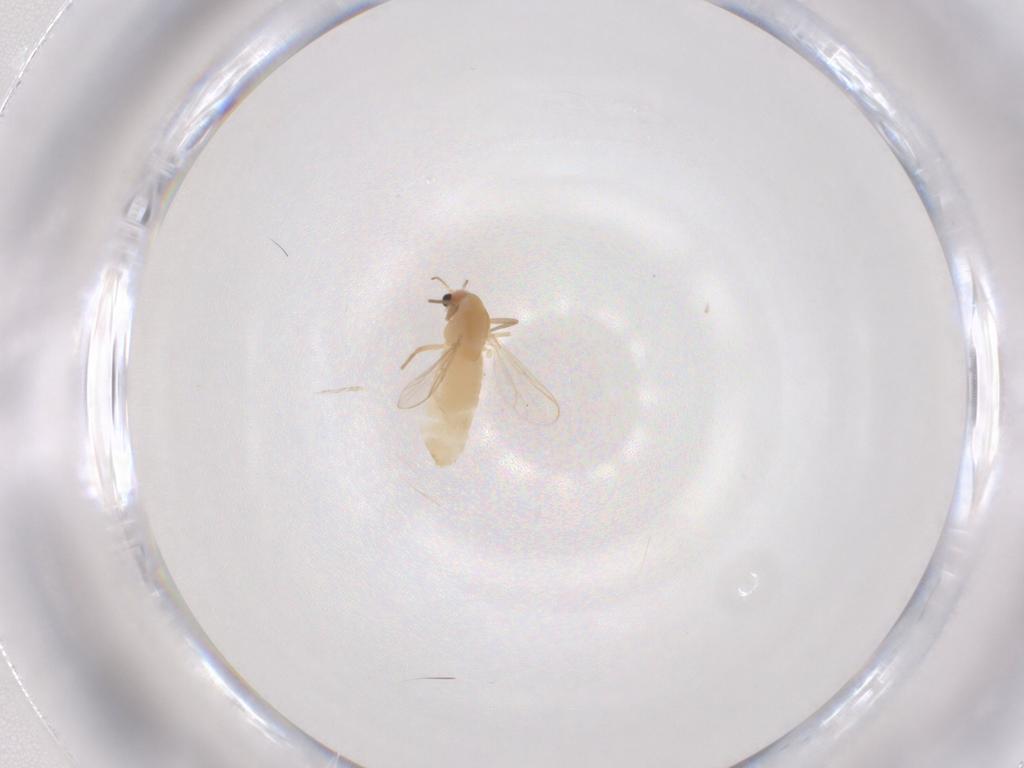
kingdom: Animalia
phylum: Arthropoda
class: Insecta
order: Diptera
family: Chironomidae
